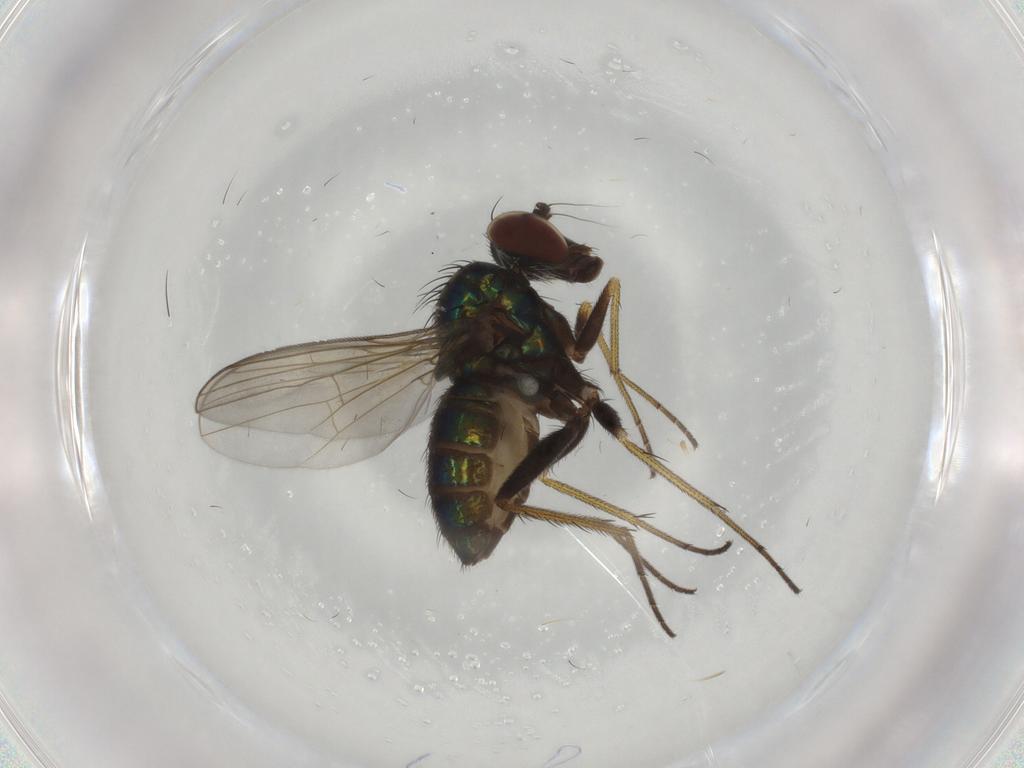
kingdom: Animalia
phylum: Arthropoda
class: Insecta
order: Diptera
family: Dolichopodidae
